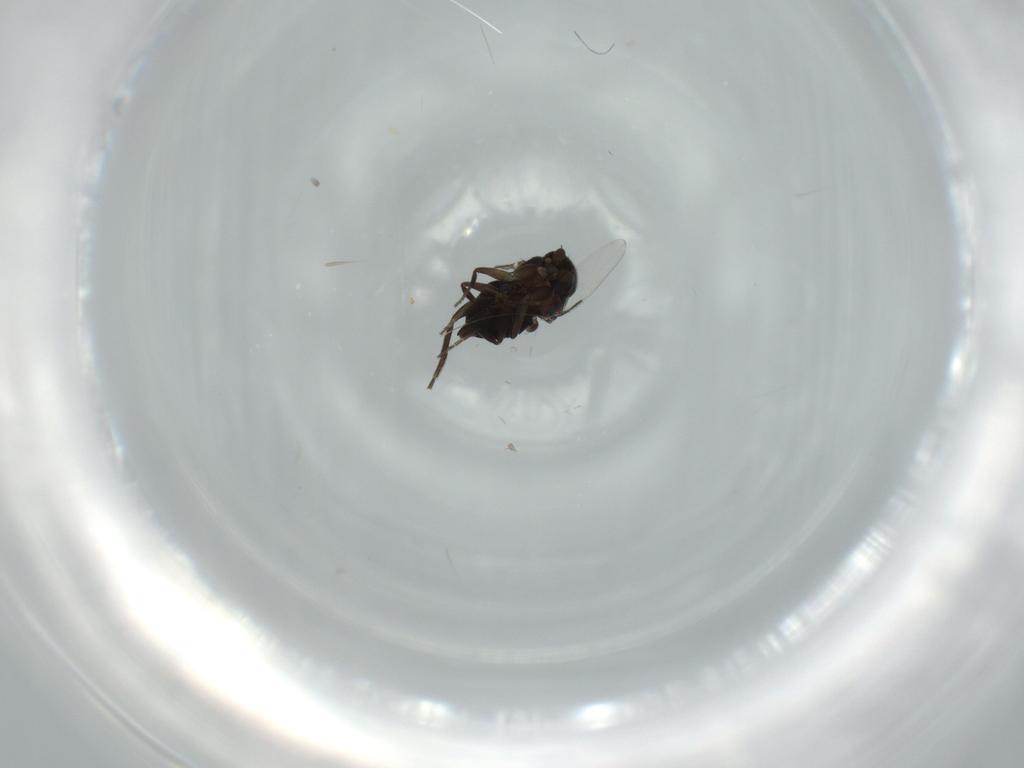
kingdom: Animalia
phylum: Arthropoda
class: Insecta
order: Diptera
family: Phoridae
